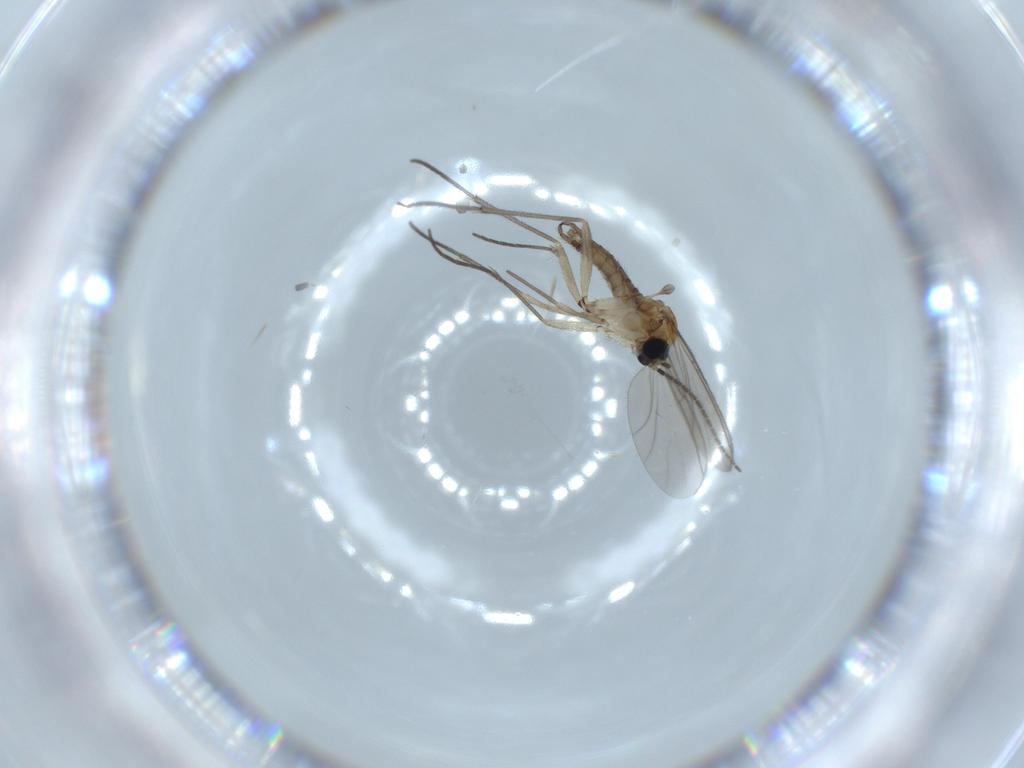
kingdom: Animalia
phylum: Arthropoda
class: Insecta
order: Diptera
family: Sciaridae
